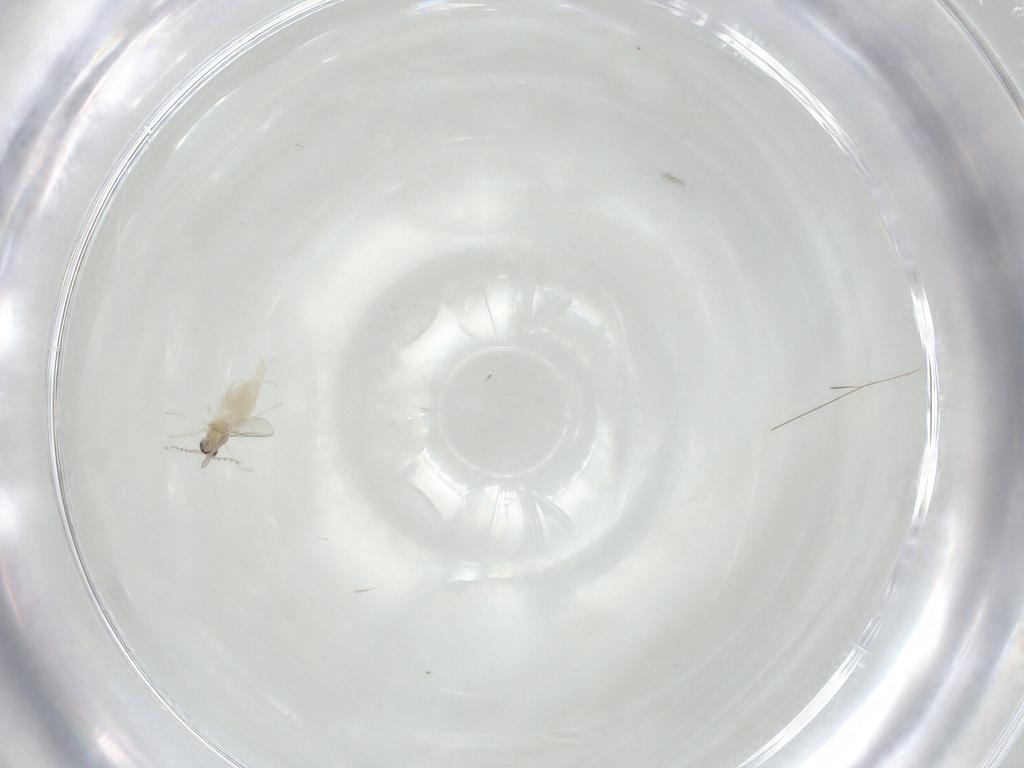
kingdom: Animalia
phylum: Arthropoda
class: Insecta
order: Diptera
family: Cecidomyiidae
